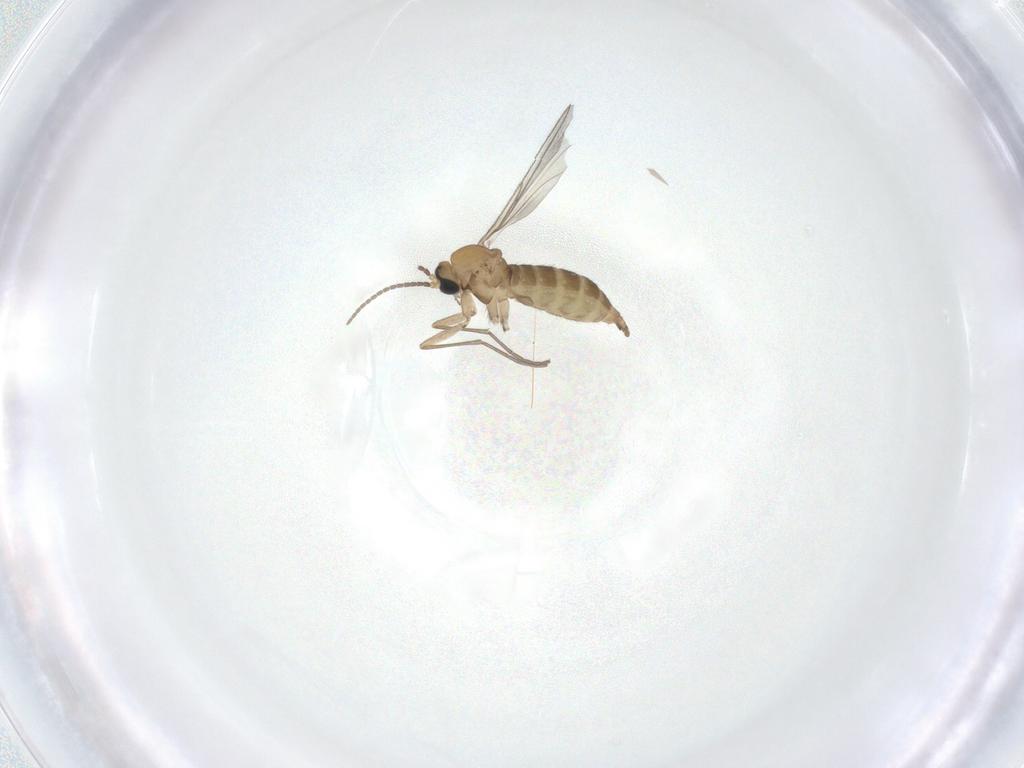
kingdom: Animalia
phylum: Arthropoda
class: Insecta
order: Diptera
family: Sciaridae
